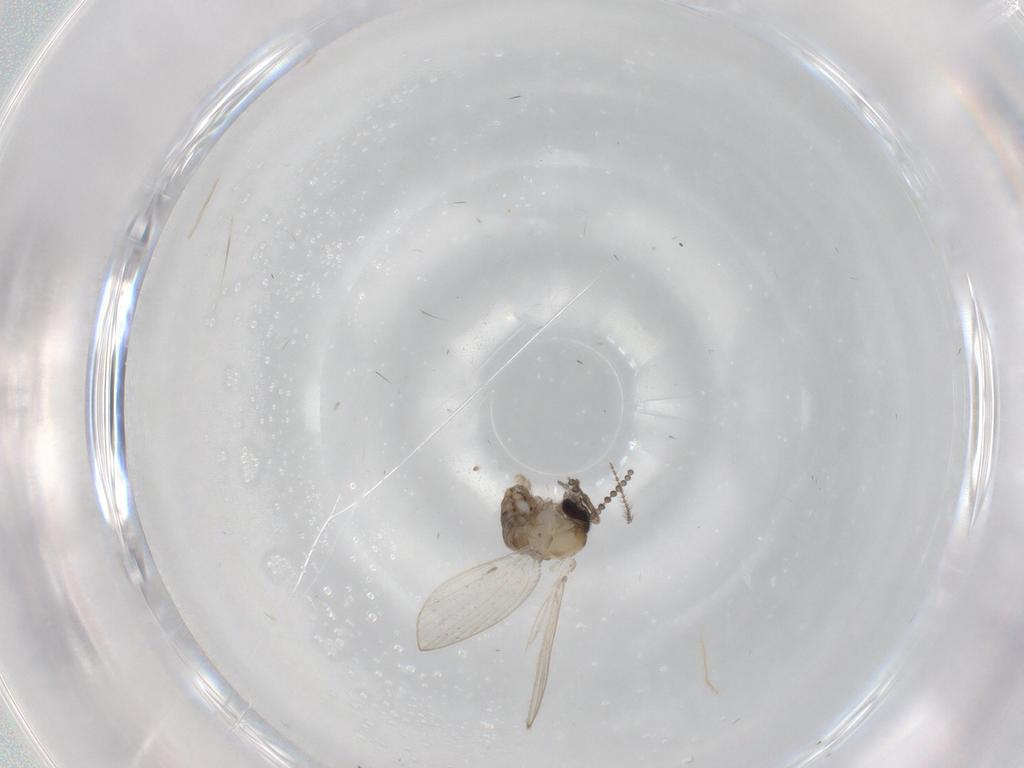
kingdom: Animalia
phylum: Arthropoda
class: Insecta
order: Diptera
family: Psychodidae
